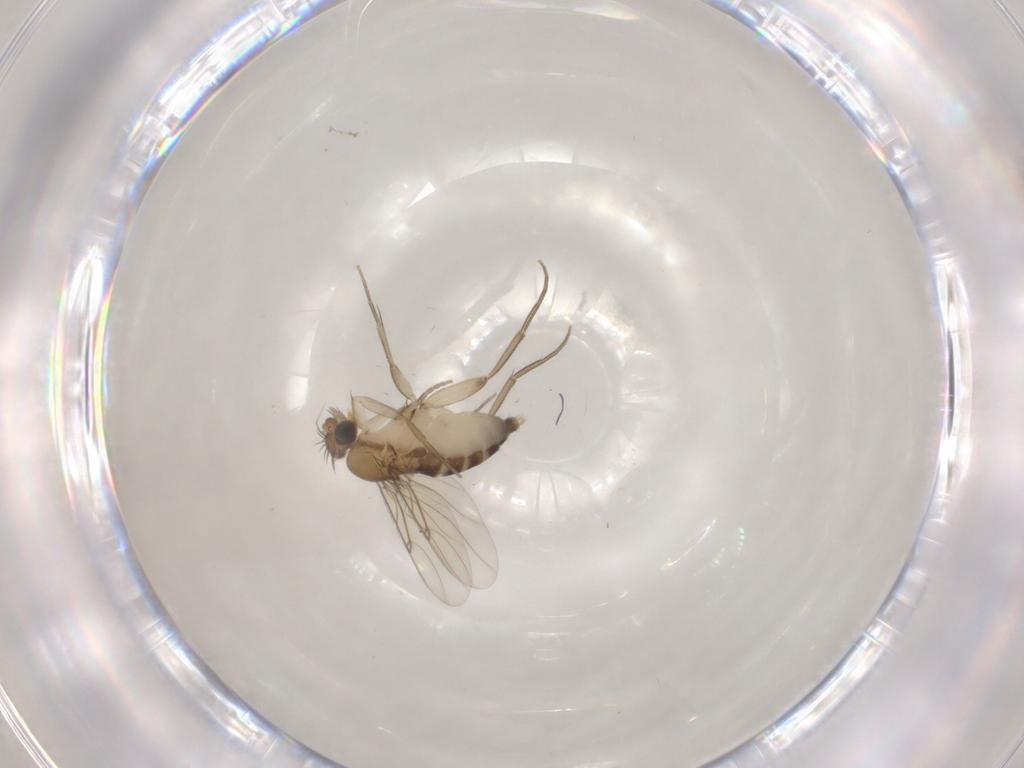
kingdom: Animalia
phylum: Arthropoda
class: Insecta
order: Diptera
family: Phoridae
